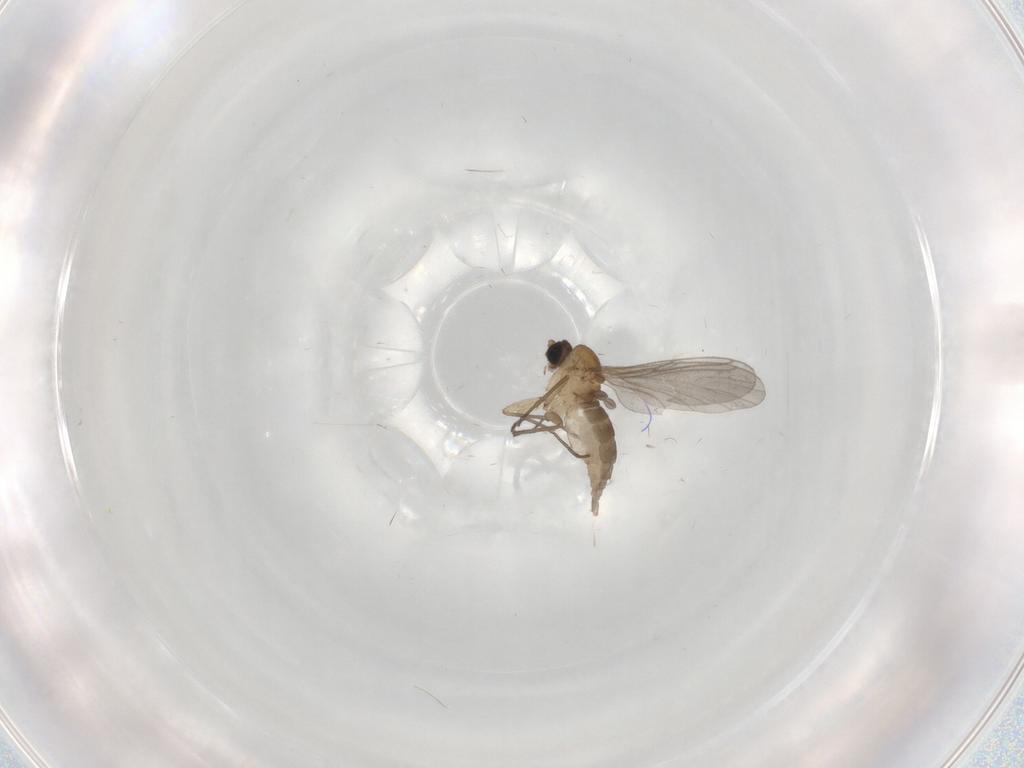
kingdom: Animalia
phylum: Arthropoda
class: Insecta
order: Diptera
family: Sciaridae
